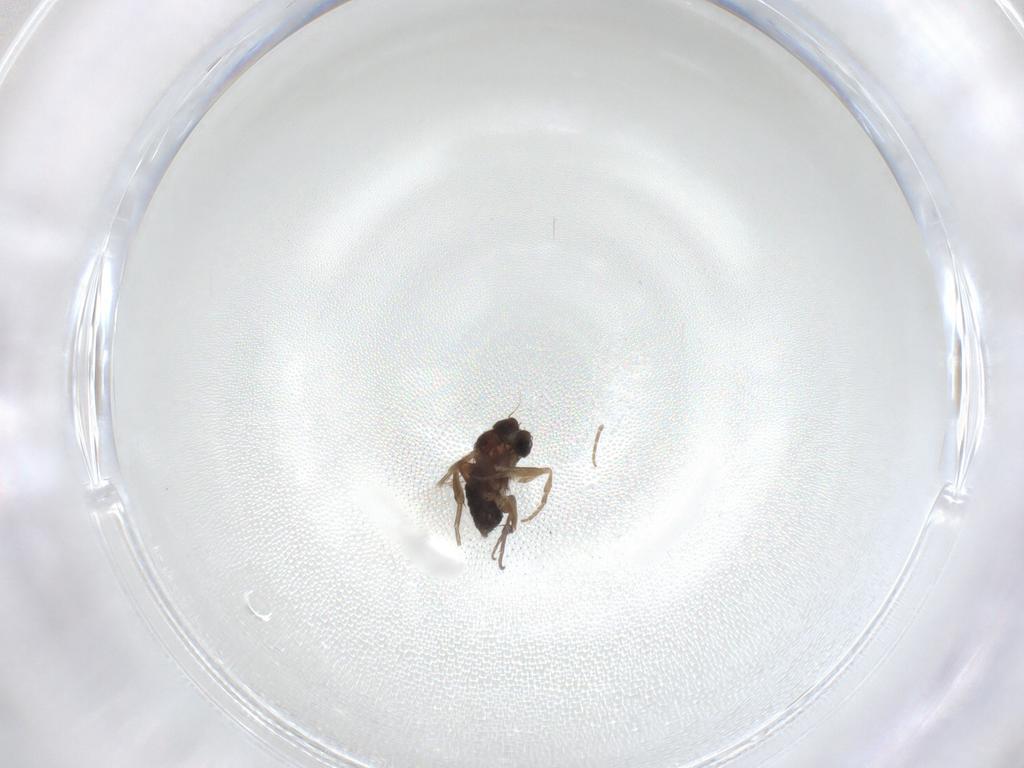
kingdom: Animalia
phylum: Arthropoda
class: Insecta
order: Diptera
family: Phoridae
